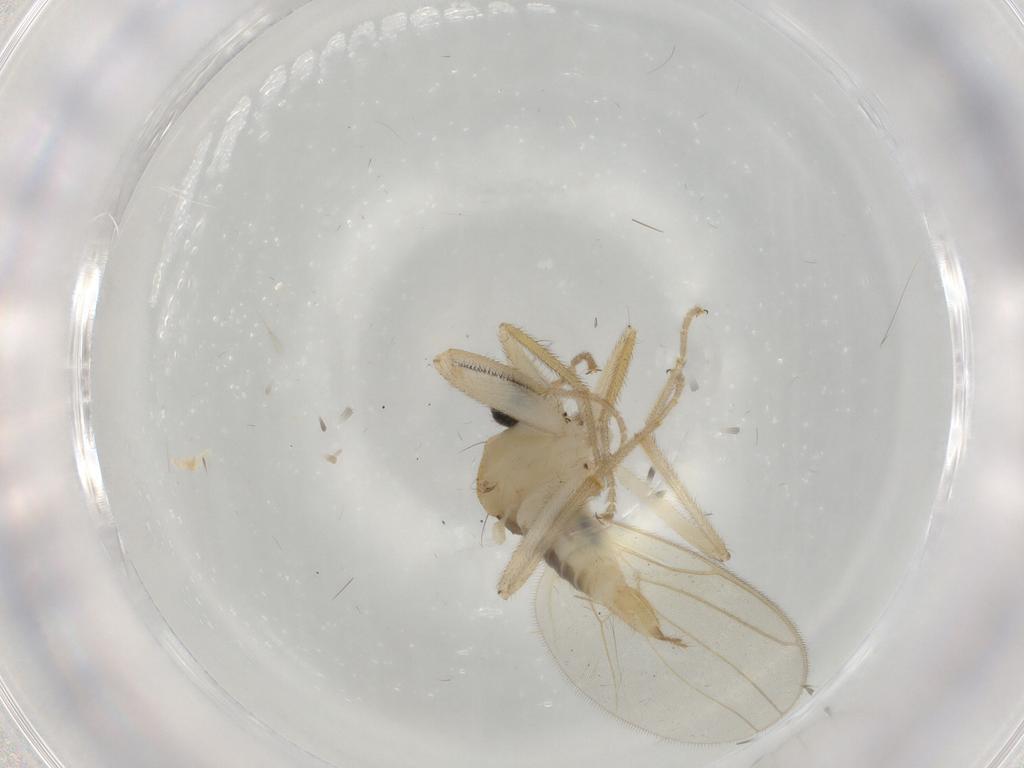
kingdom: Animalia
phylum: Arthropoda
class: Insecta
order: Diptera
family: Hybotidae
